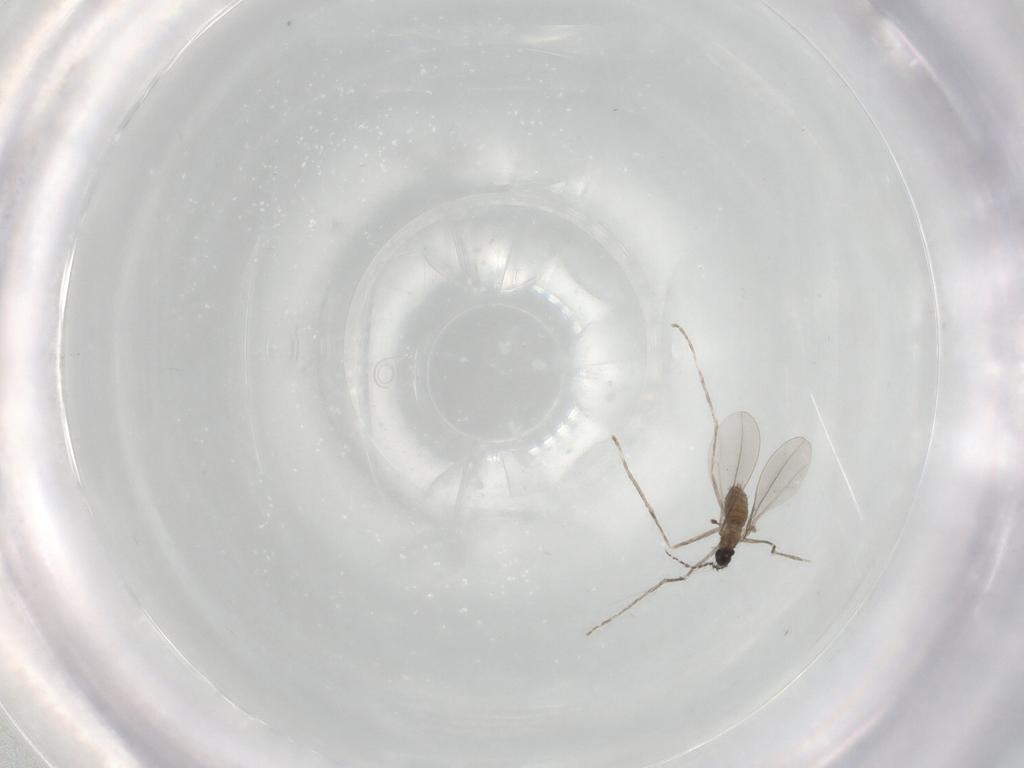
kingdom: Animalia
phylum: Arthropoda
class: Insecta
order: Diptera
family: Cecidomyiidae
